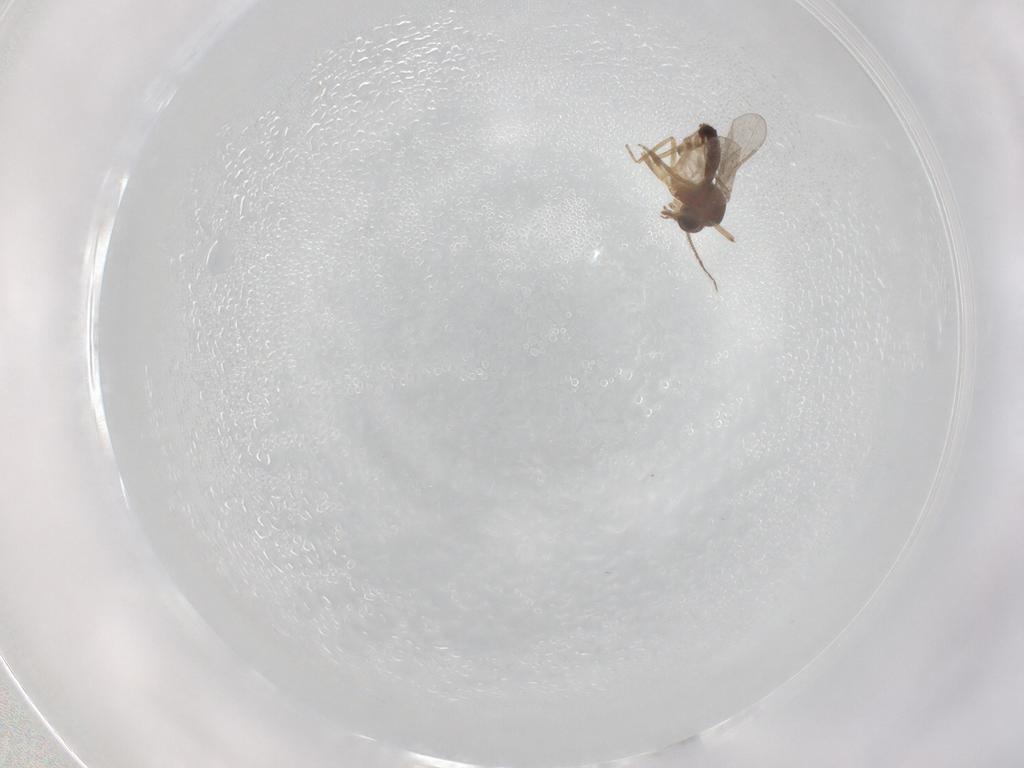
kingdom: Animalia
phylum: Arthropoda
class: Insecta
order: Diptera
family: Ceratopogonidae
